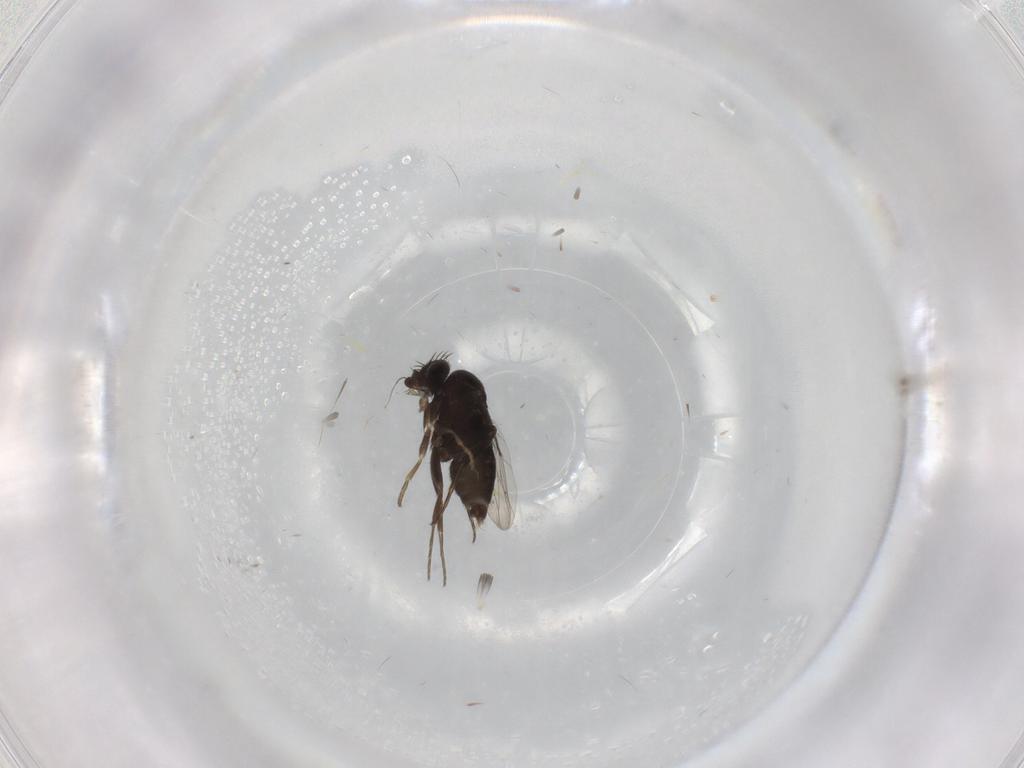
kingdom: Animalia
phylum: Arthropoda
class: Insecta
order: Diptera
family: Phoridae
